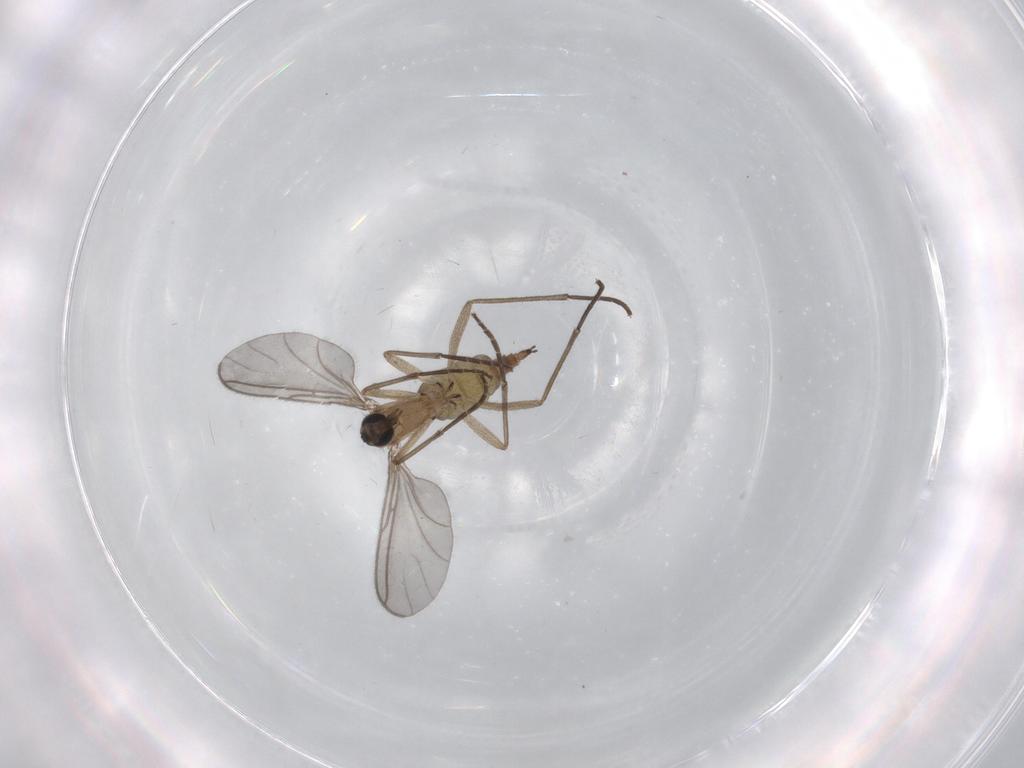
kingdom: Animalia
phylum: Arthropoda
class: Insecta
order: Diptera
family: Sciaridae
